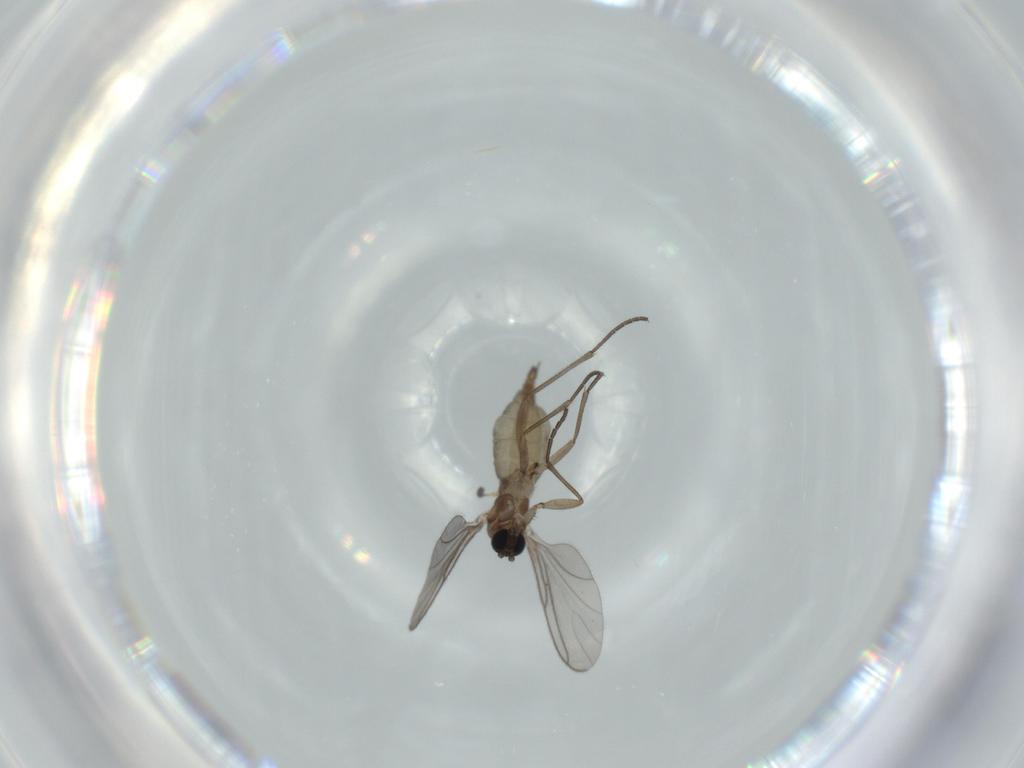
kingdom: Animalia
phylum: Arthropoda
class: Insecta
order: Diptera
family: Sciaridae
